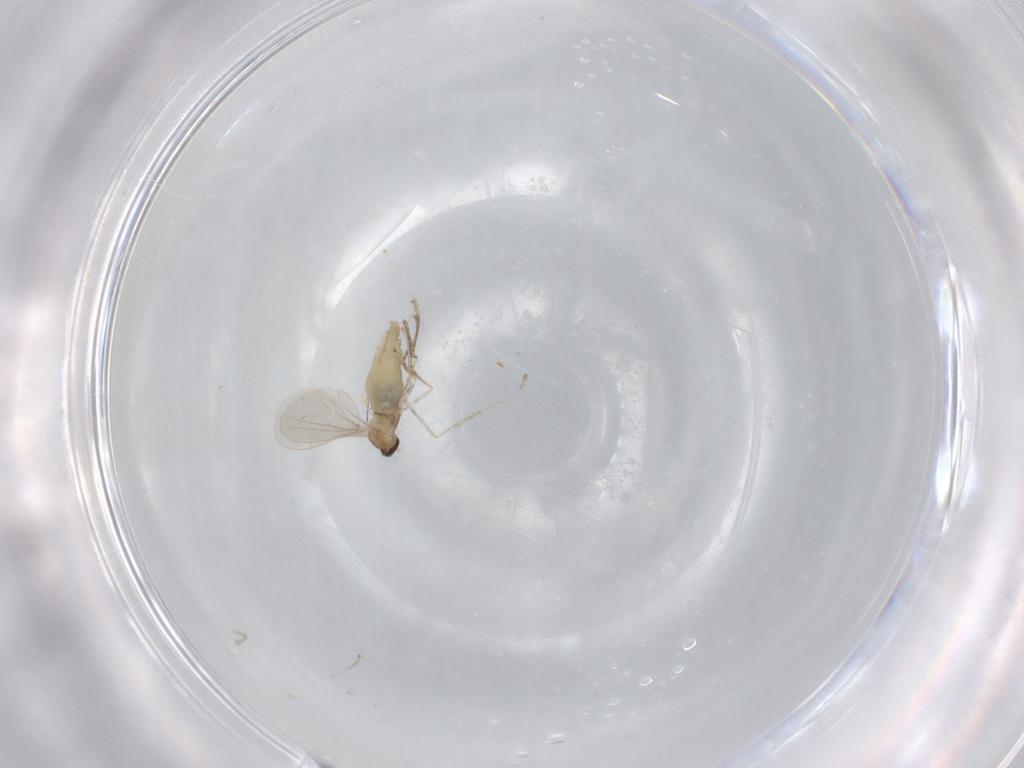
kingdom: Animalia
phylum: Arthropoda
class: Insecta
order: Diptera
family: Cecidomyiidae
